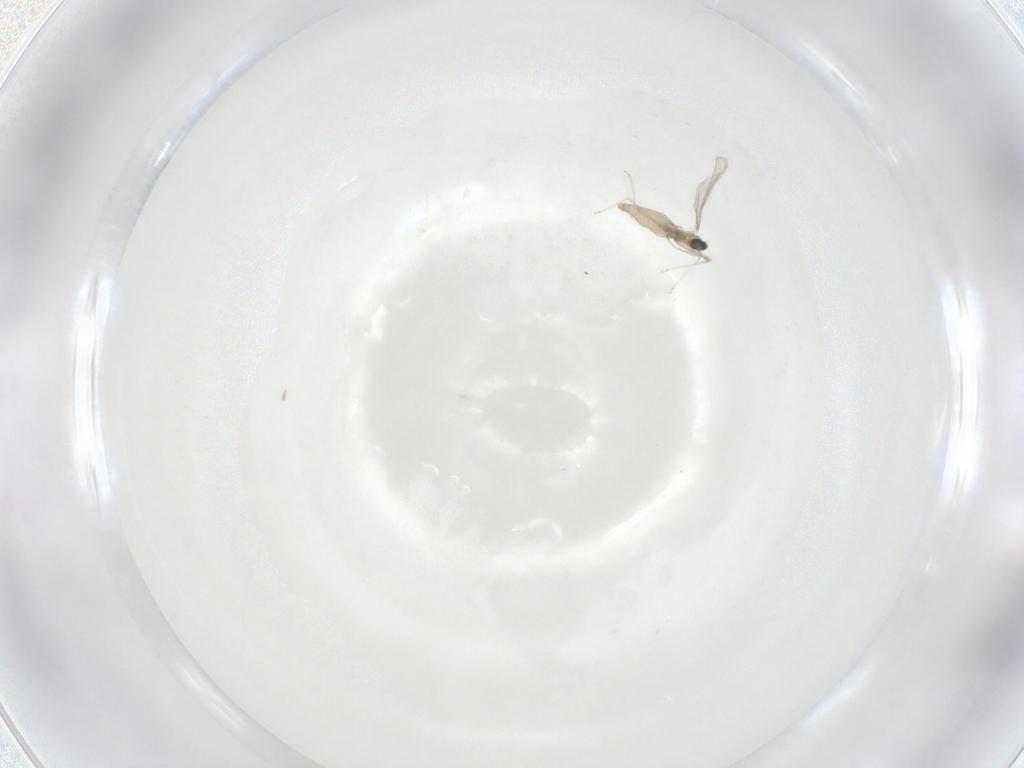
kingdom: Animalia
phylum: Arthropoda
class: Insecta
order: Diptera
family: Cecidomyiidae
